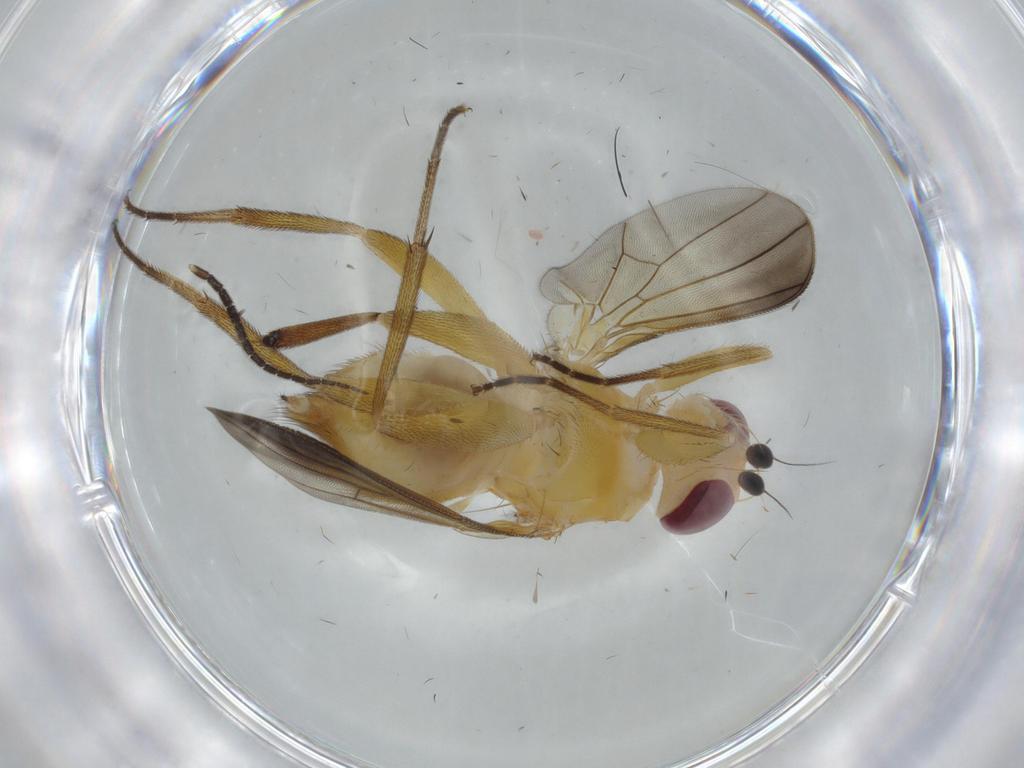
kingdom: Animalia
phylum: Arthropoda
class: Insecta
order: Diptera
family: Clusiidae
